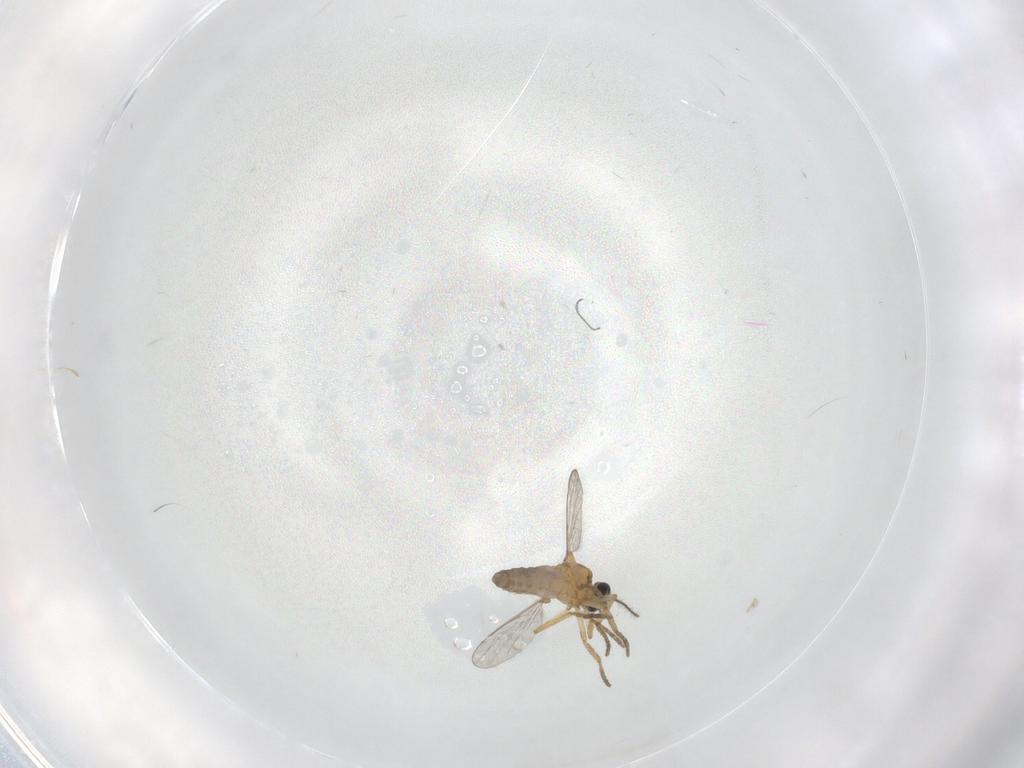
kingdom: Animalia
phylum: Arthropoda
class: Insecta
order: Diptera
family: Ceratopogonidae
